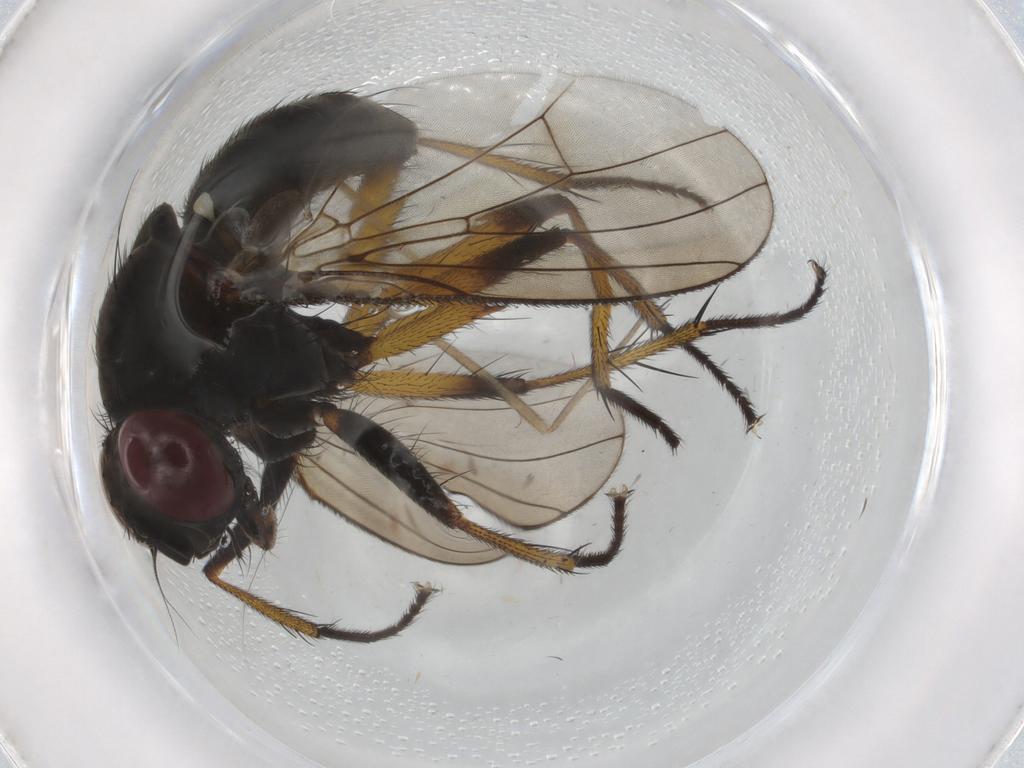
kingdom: Animalia
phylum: Arthropoda
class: Insecta
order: Diptera
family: Muscidae
